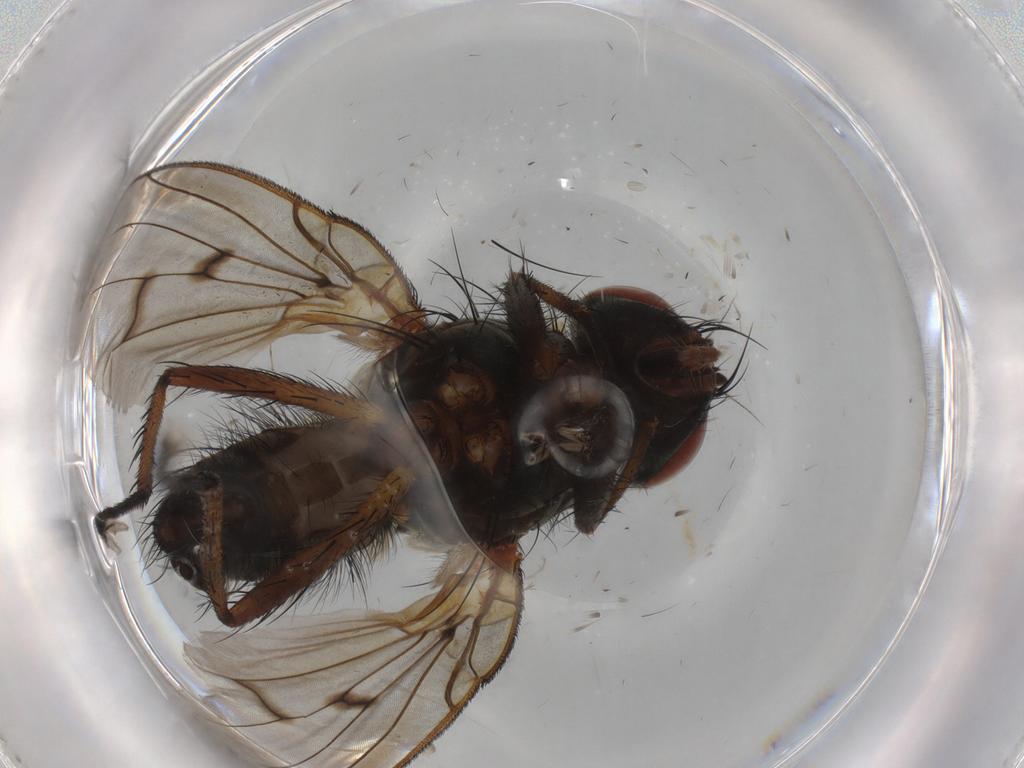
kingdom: Animalia
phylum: Arthropoda
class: Insecta
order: Diptera
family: Anthomyiidae
